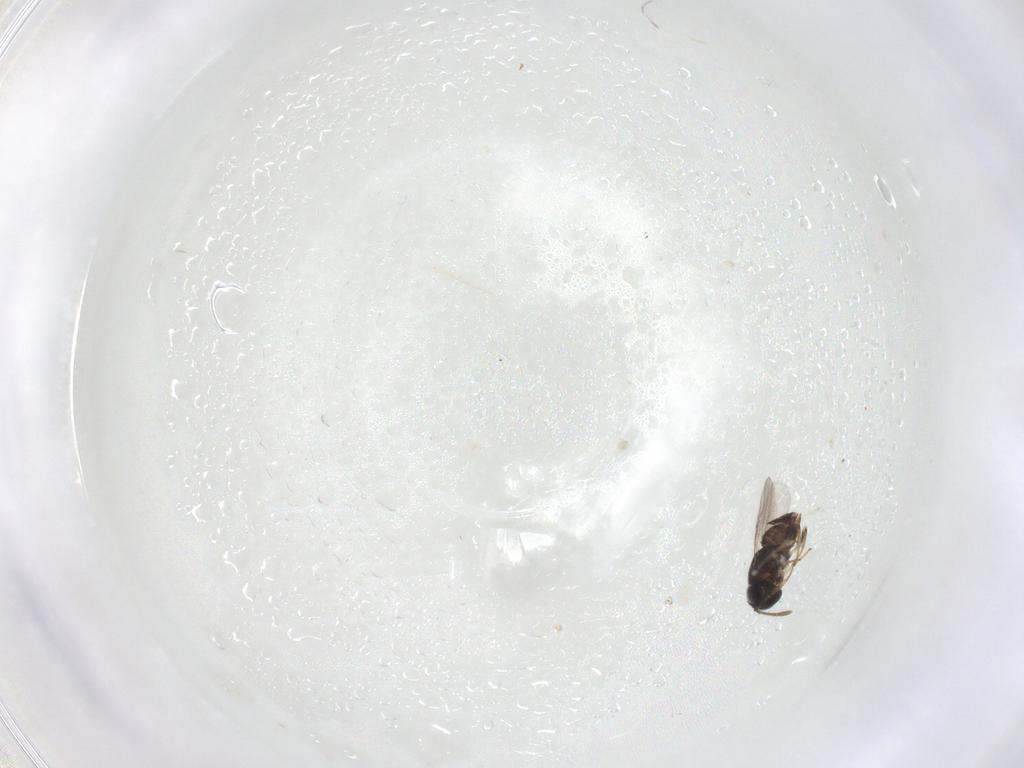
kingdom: Animalia
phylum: Arthropoda
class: Insecta
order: Hymenoptera
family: Encyrtidae
